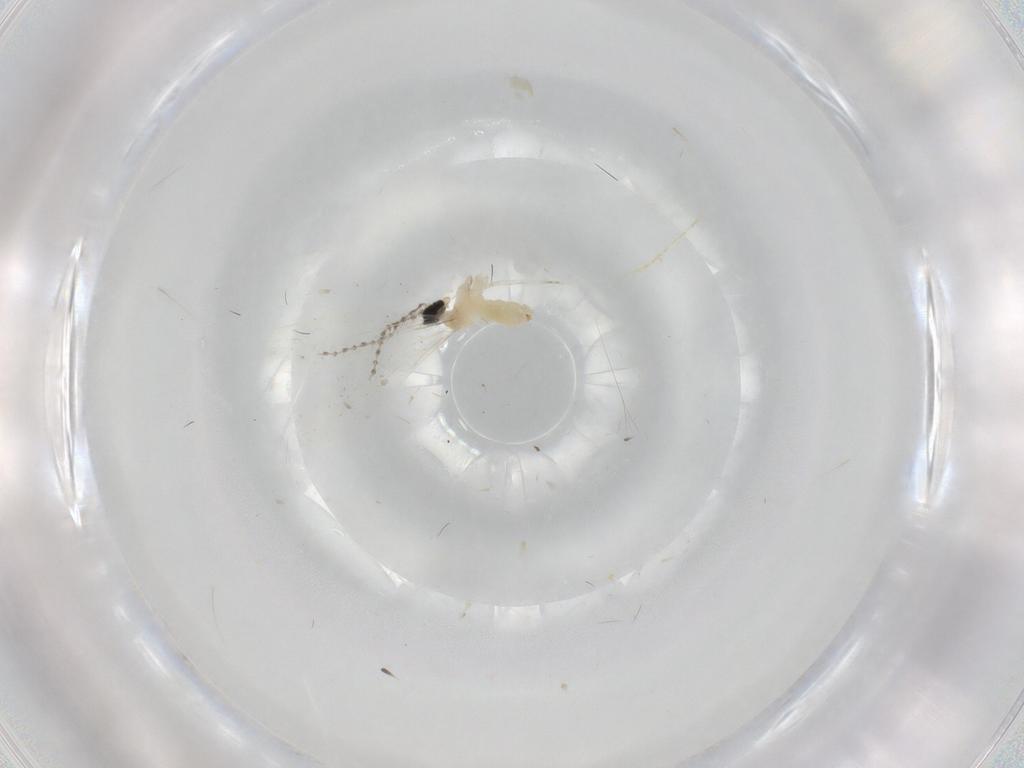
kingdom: Animalia
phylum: Arthropoda
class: Insecta
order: Diptera
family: Cecidomyiidae
